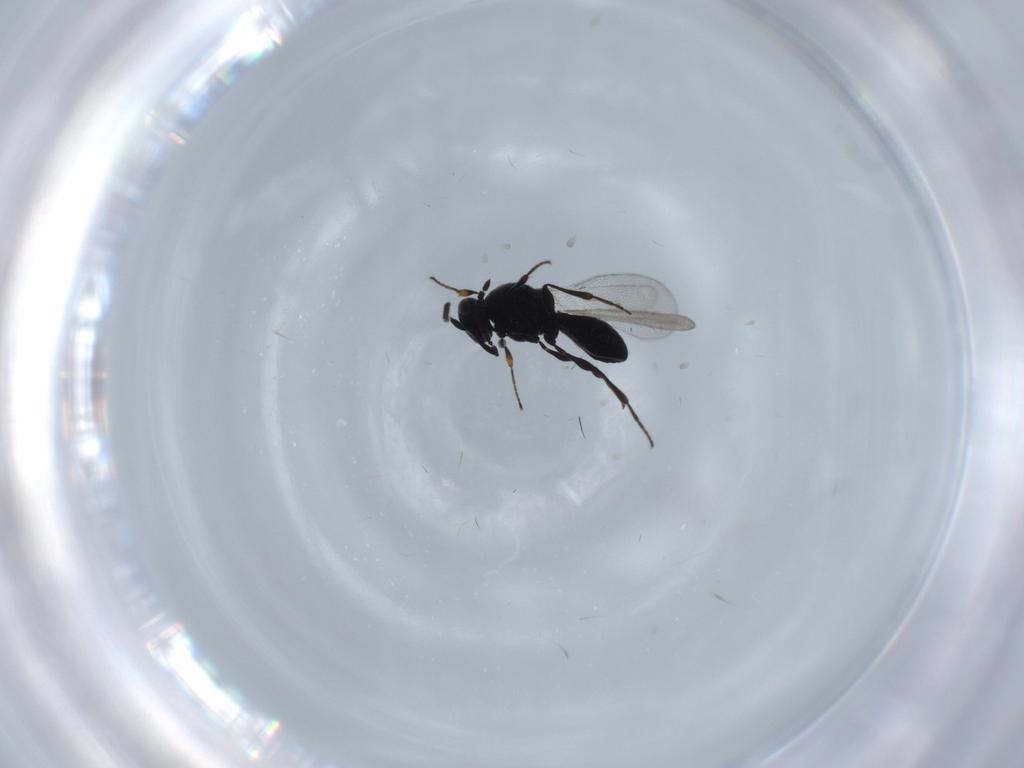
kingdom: Animalia
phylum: Arthropoda
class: Insecta
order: Diptera
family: Mythicomyiidae
